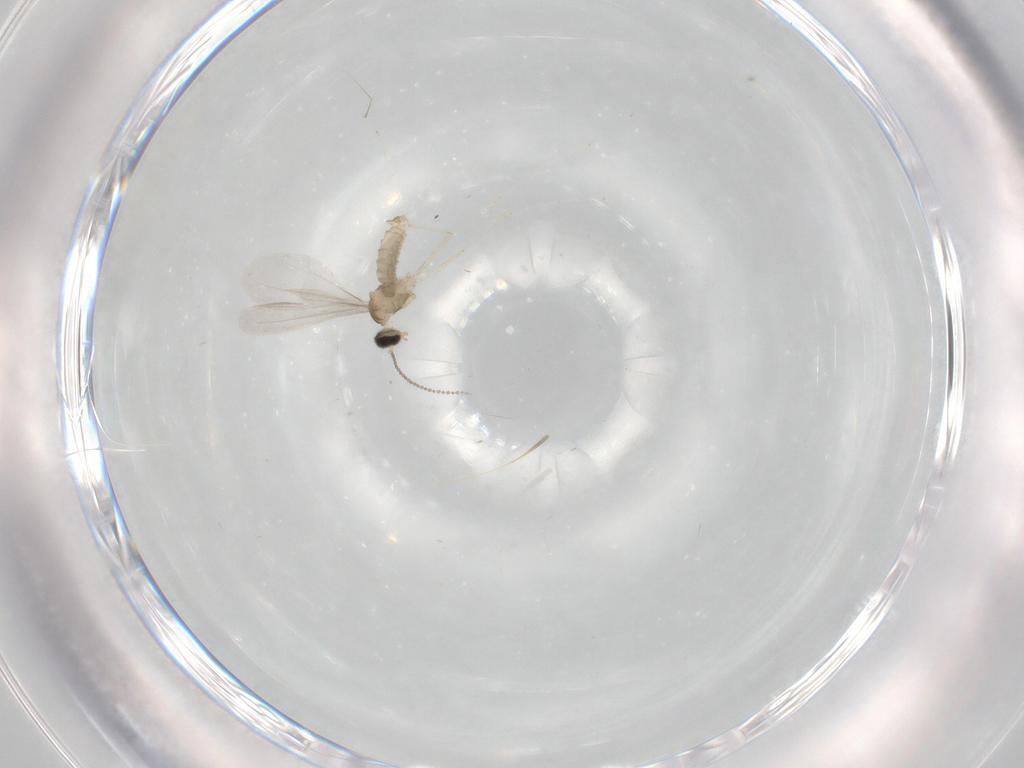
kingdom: Animalia
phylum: Arthropoda
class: Insecta
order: Diptera
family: Cecidomyiidae
